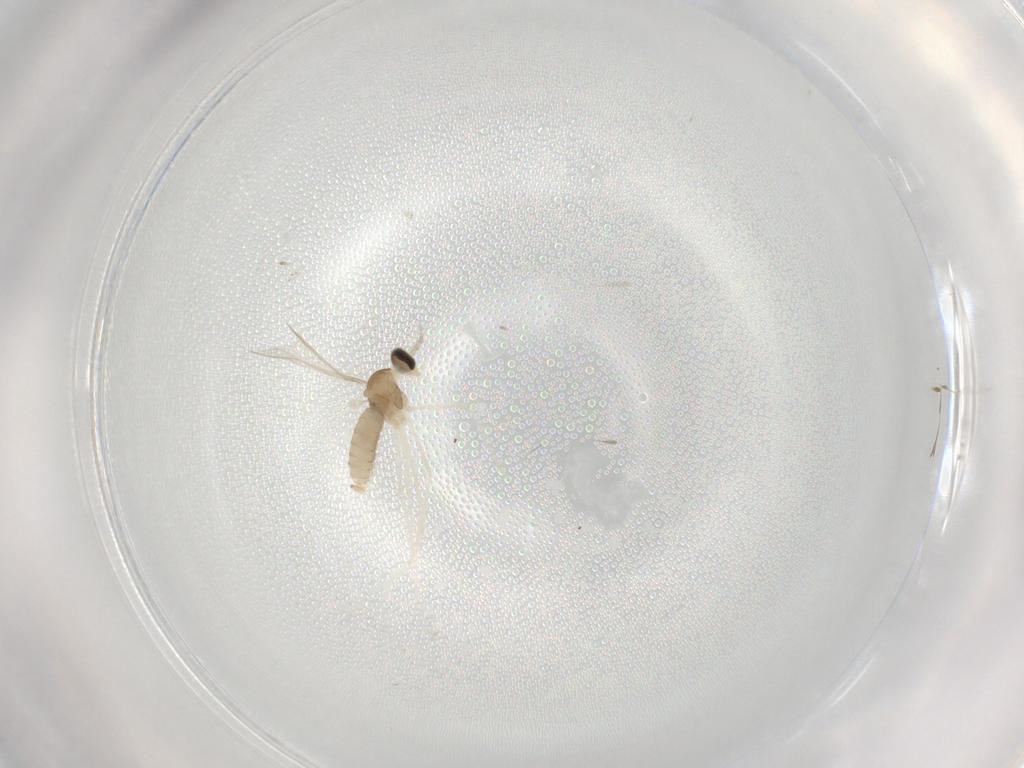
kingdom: Animalia
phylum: Arthropoda
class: Insecta
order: Diptera
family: Cecidomyiidae
